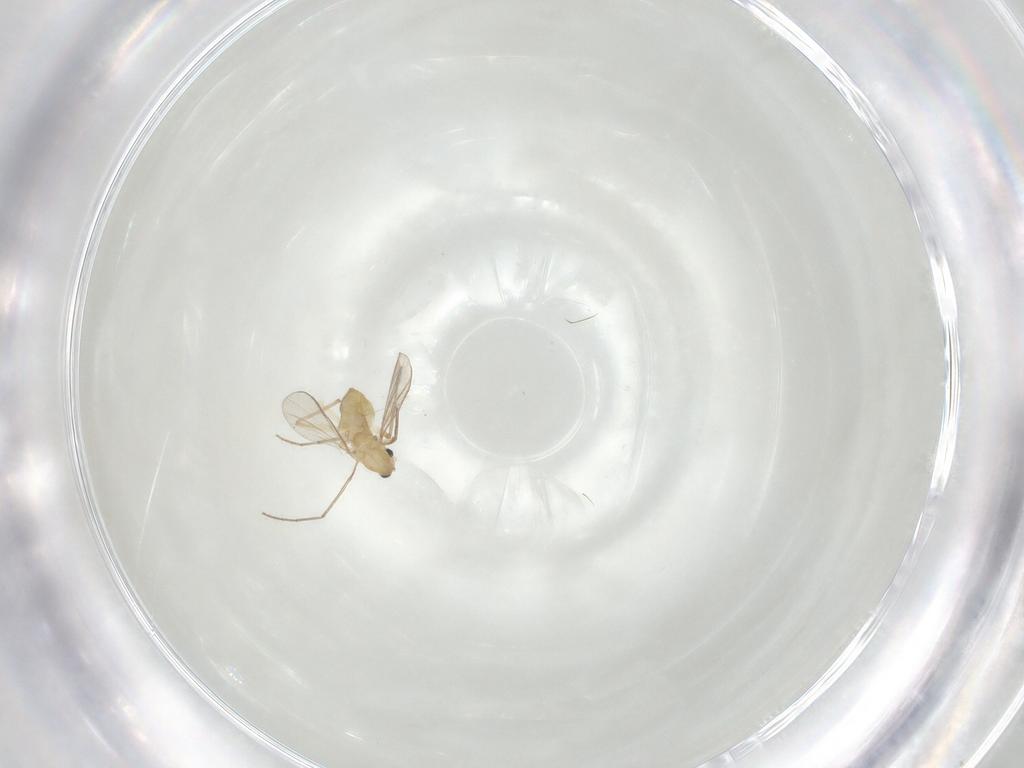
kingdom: Animalia
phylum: Arthropoda
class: Insecta
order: Diptera
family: Chironomidae
